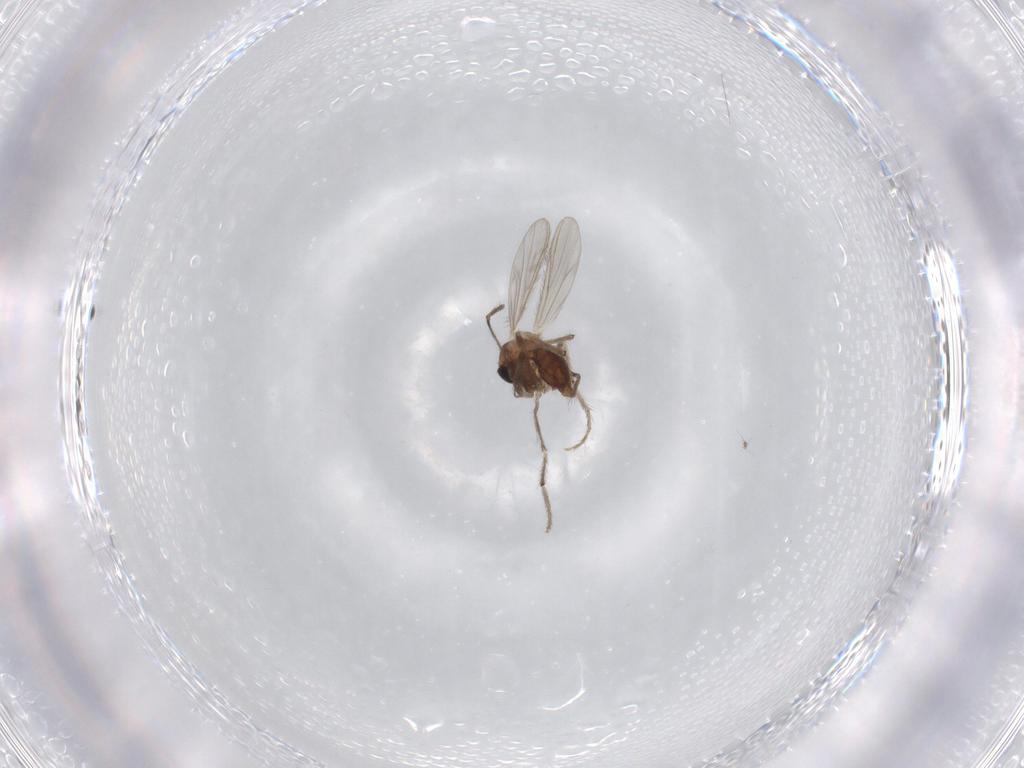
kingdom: Animalia
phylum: Arthropoda
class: Insecta
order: Diptera
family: Chironomidae
